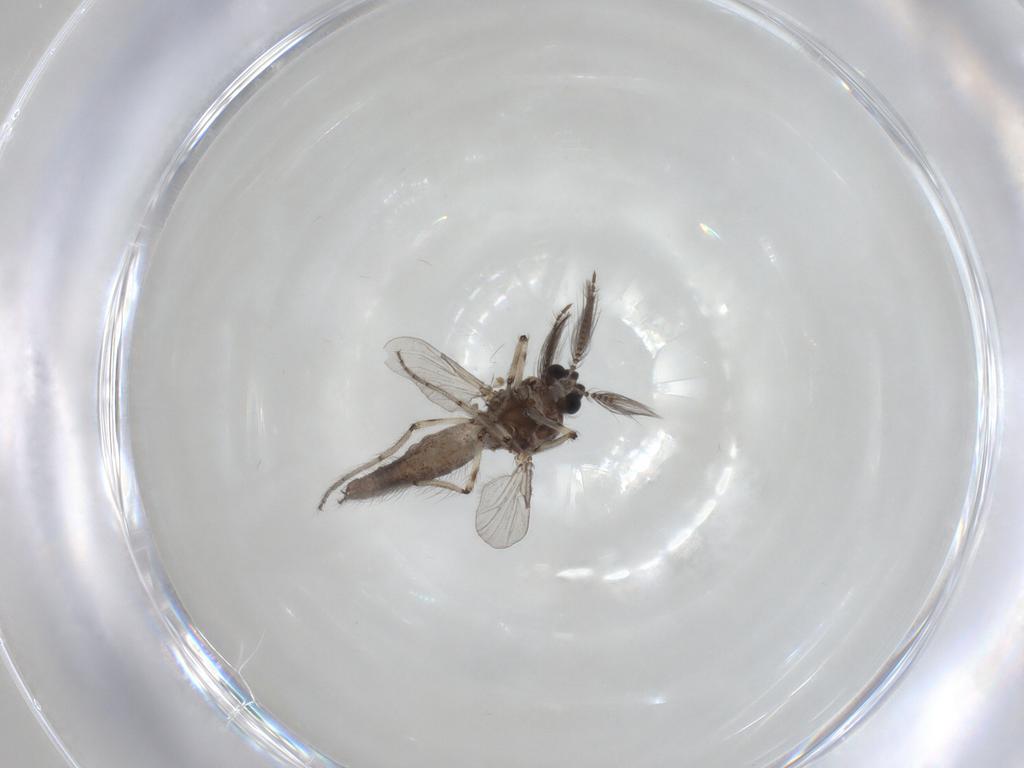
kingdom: Animalia
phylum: Arthropoda
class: Insecta
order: Diptera
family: Ceratopogonidae
